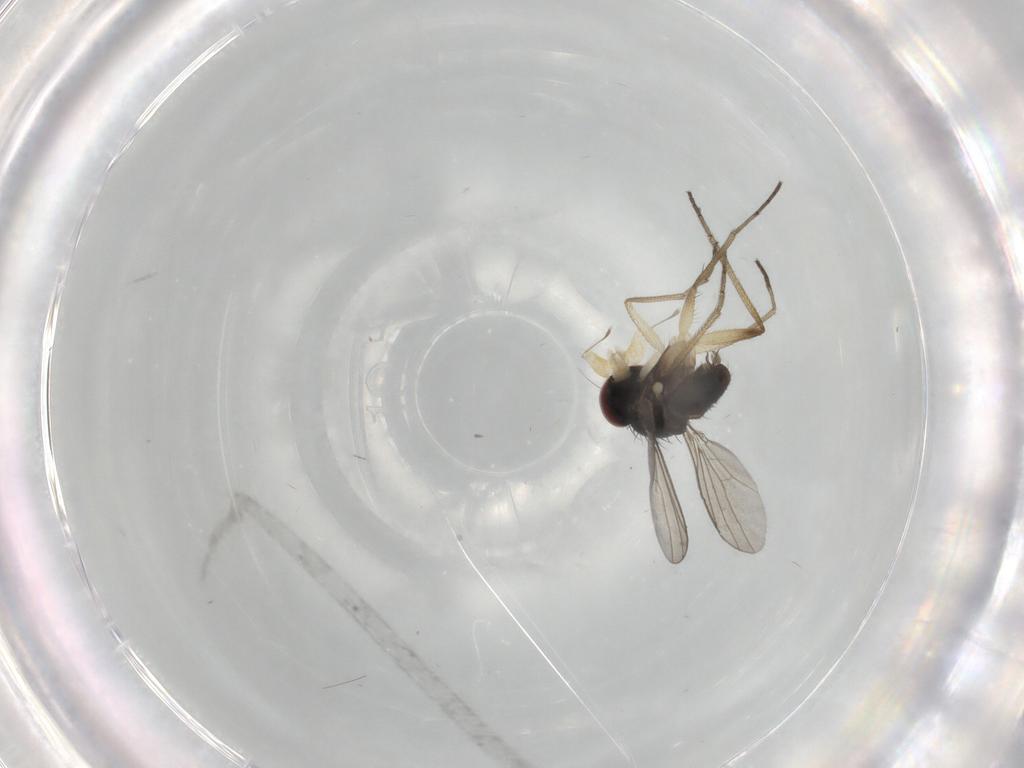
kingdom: Animalia
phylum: Arthropoda
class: Insecta
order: Diptera
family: Dolichopodidae
